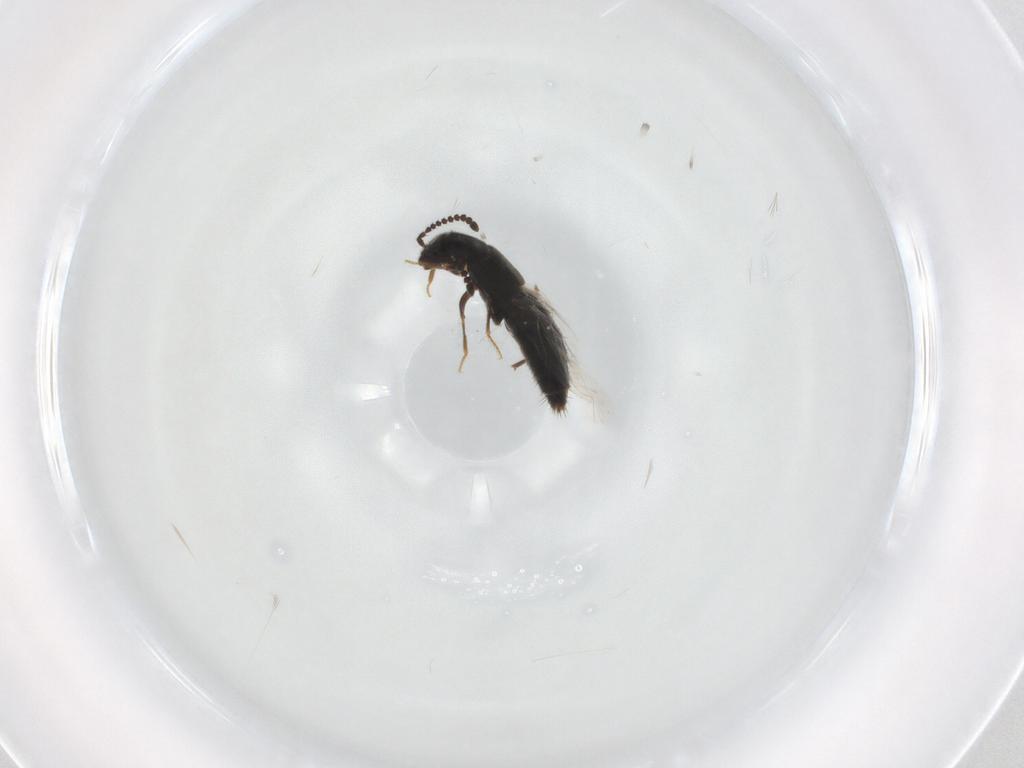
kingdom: Animalia
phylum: Arthropoda
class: Insecta
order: Coleoptera
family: Staphylinidae
